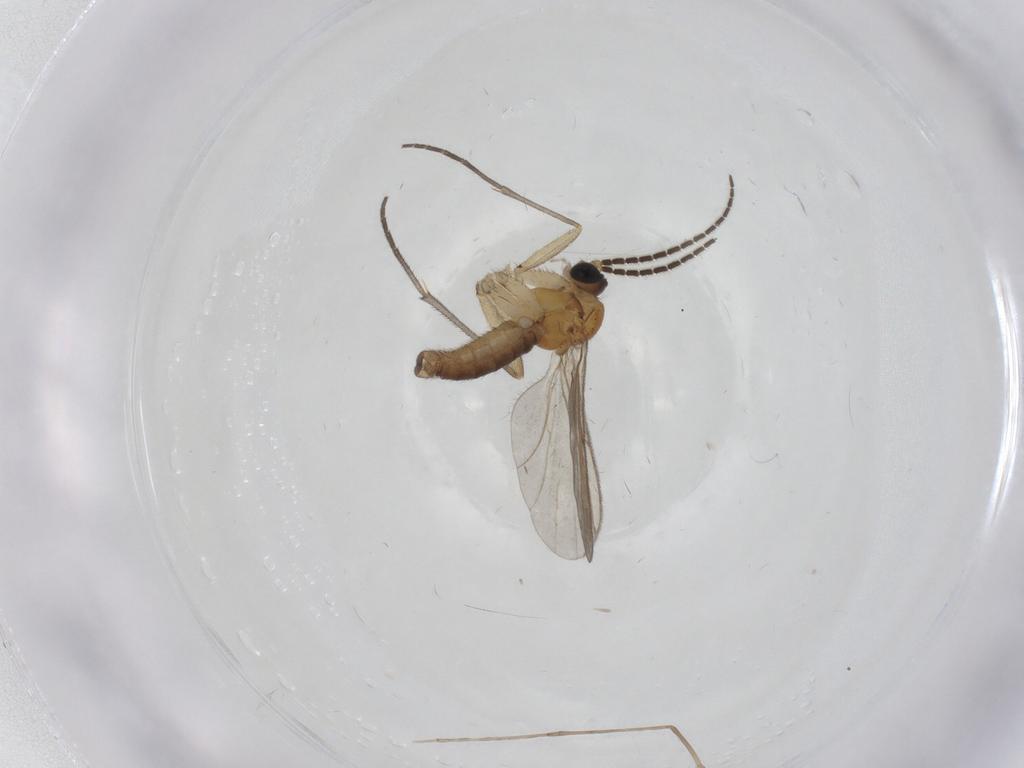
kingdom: Animalia
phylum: Arthropoda
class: Insecta
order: Diptera
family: Sciaridae
